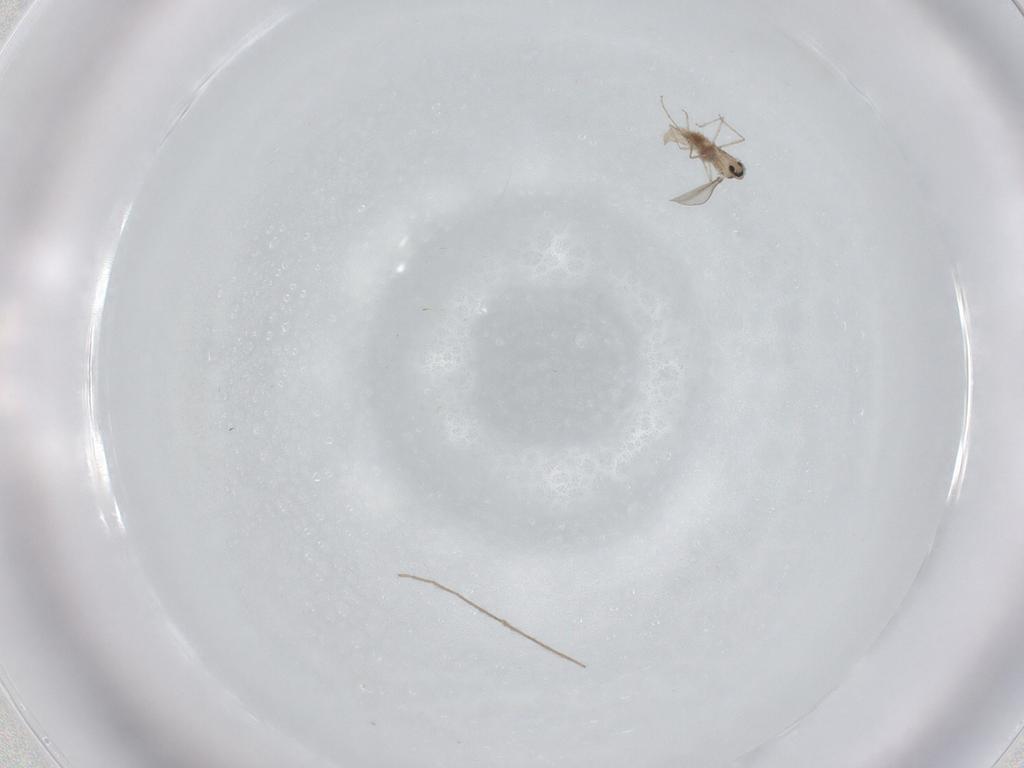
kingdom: Animalia
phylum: Arthropoda
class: Insecta
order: Diptera
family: Cecidomyiidae
